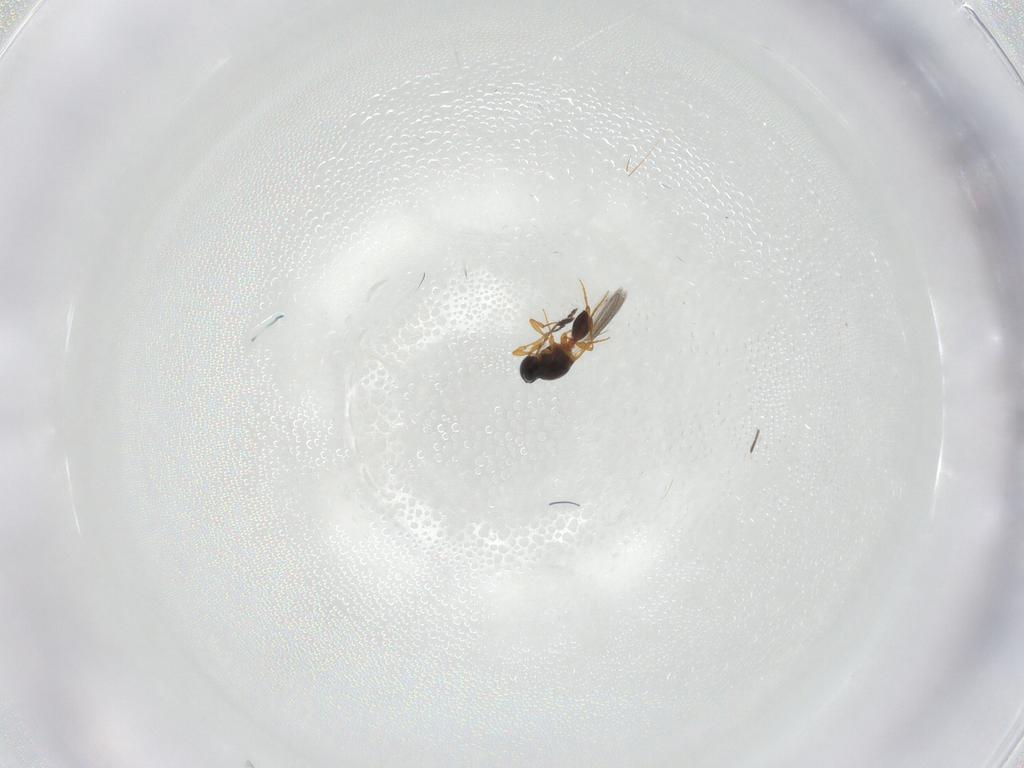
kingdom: Animalia
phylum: Arthropoda
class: Insecta
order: Hymenoptera
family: Platygastridae
